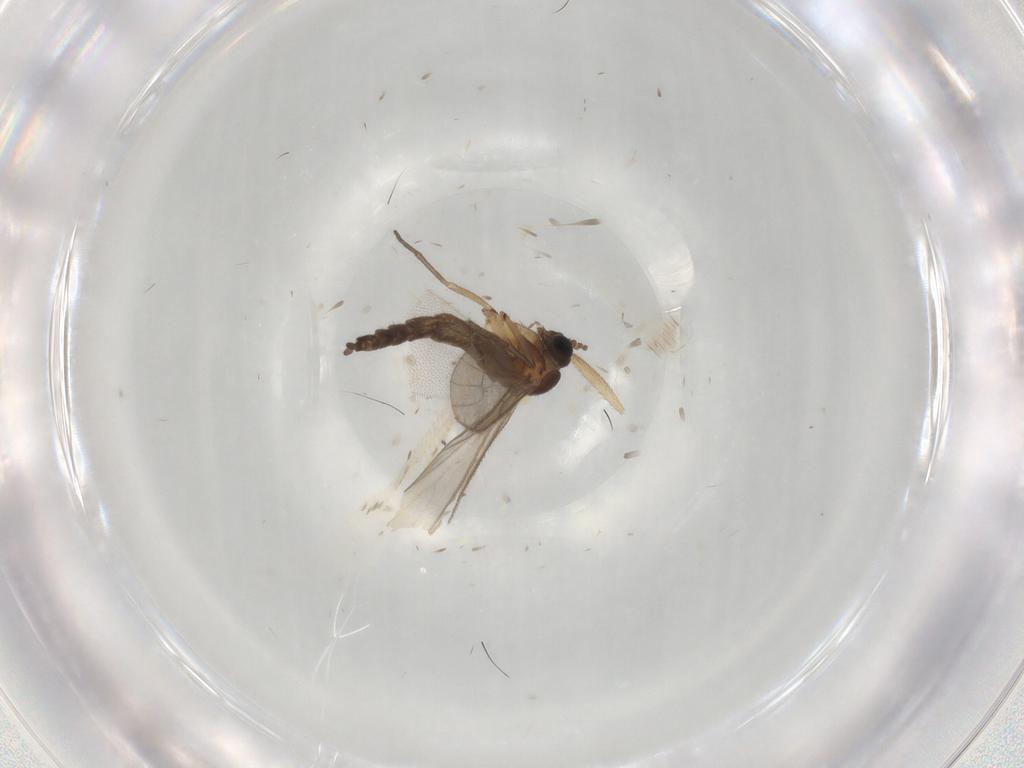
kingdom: Animalia
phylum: Arthropoda
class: Insecta
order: Diptera
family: Sciaridae
